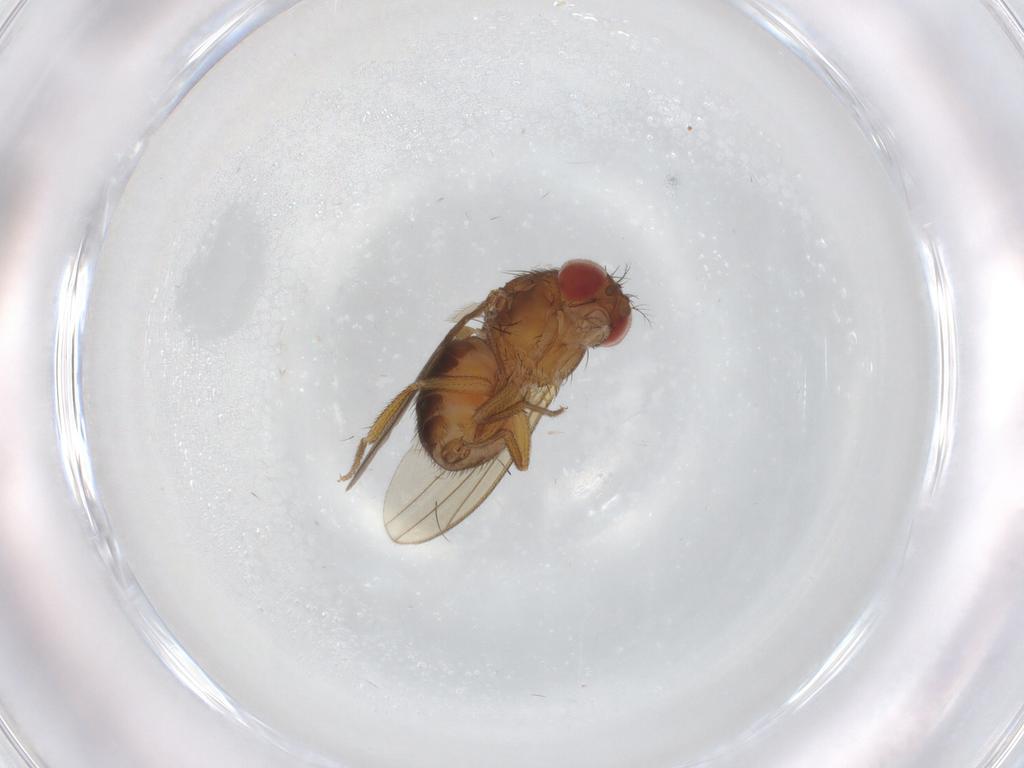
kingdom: Animalia
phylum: Arthropoda
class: Insecta
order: Diptera
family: Drosophilidae
